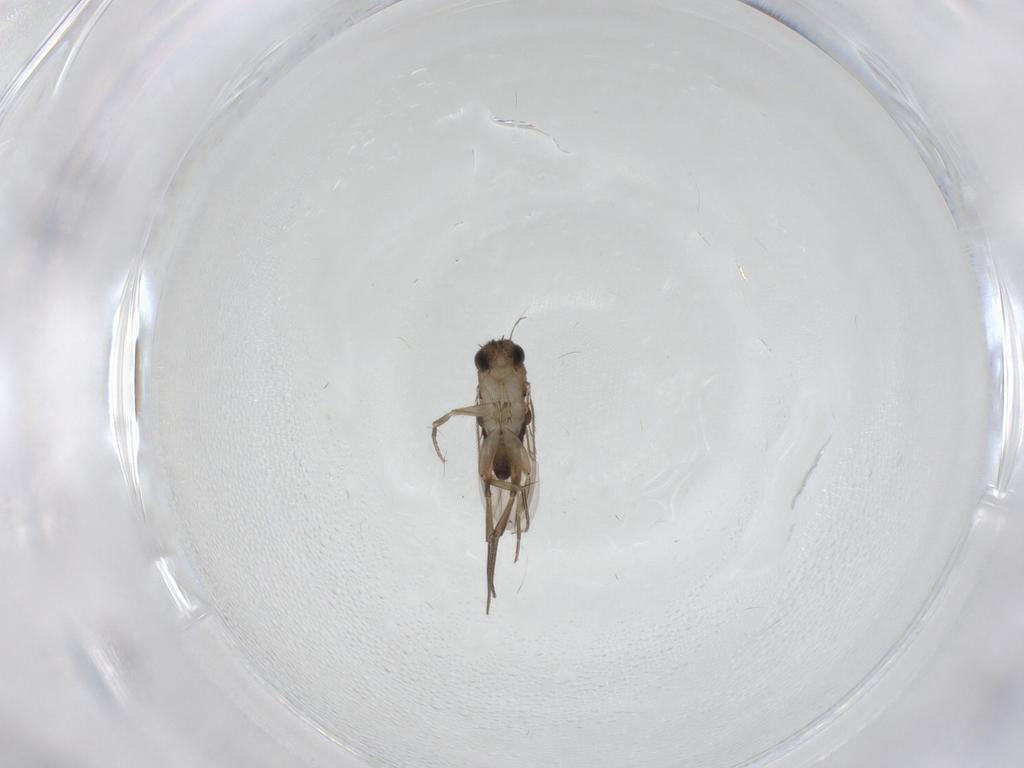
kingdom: Animalia
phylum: Arthropoda
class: Insecta
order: Diptera
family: Phoridae
